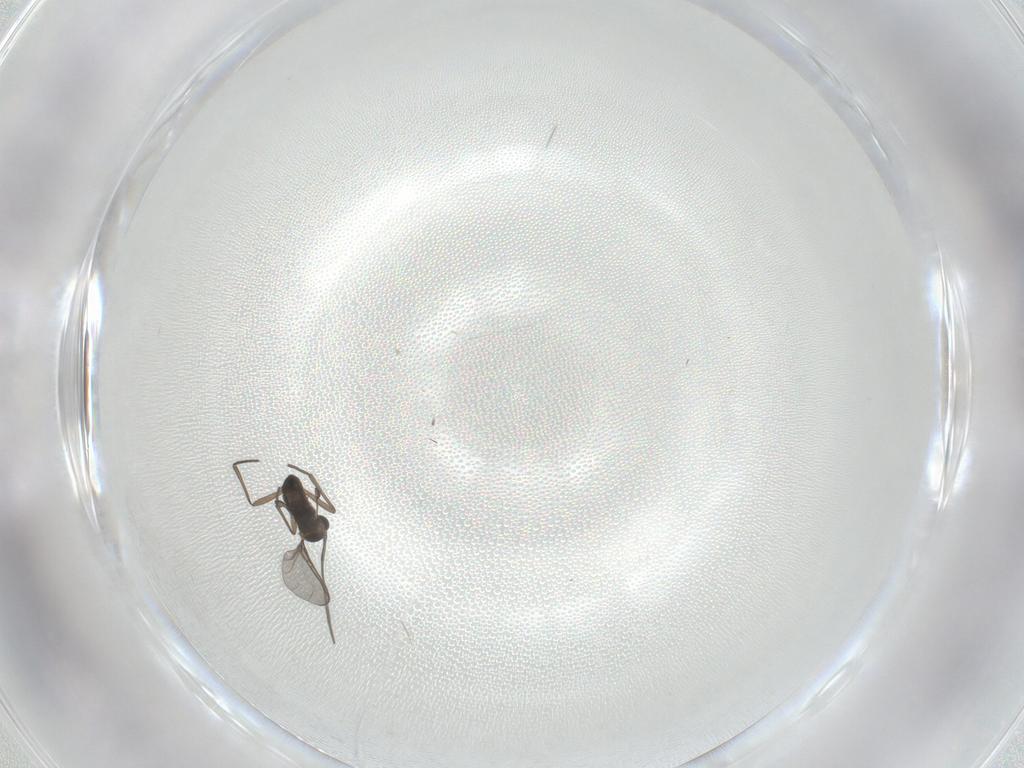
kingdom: Animalia
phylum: Arthropoda
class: Insecta
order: Diptera
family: Sciaridae
